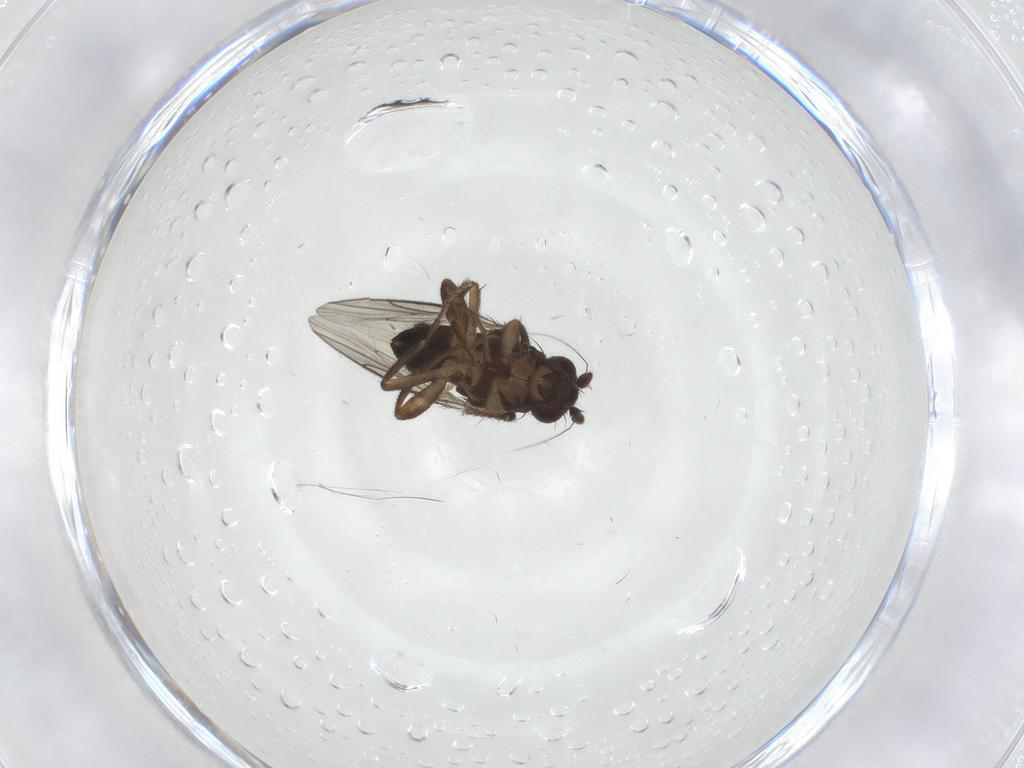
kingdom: Animalia
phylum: Arthropoda
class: Insecta
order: Diptera
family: Sphaeroceridae
